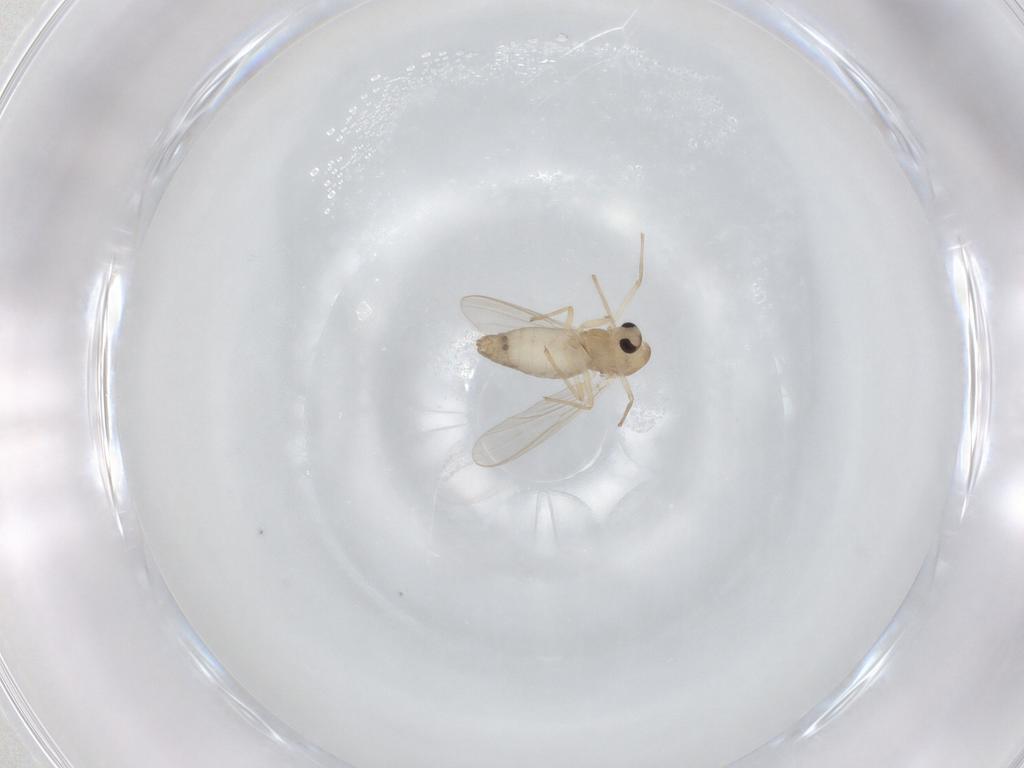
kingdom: Animalia
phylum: Arthropoda
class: Insecta
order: Diptera
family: Chironomidae
